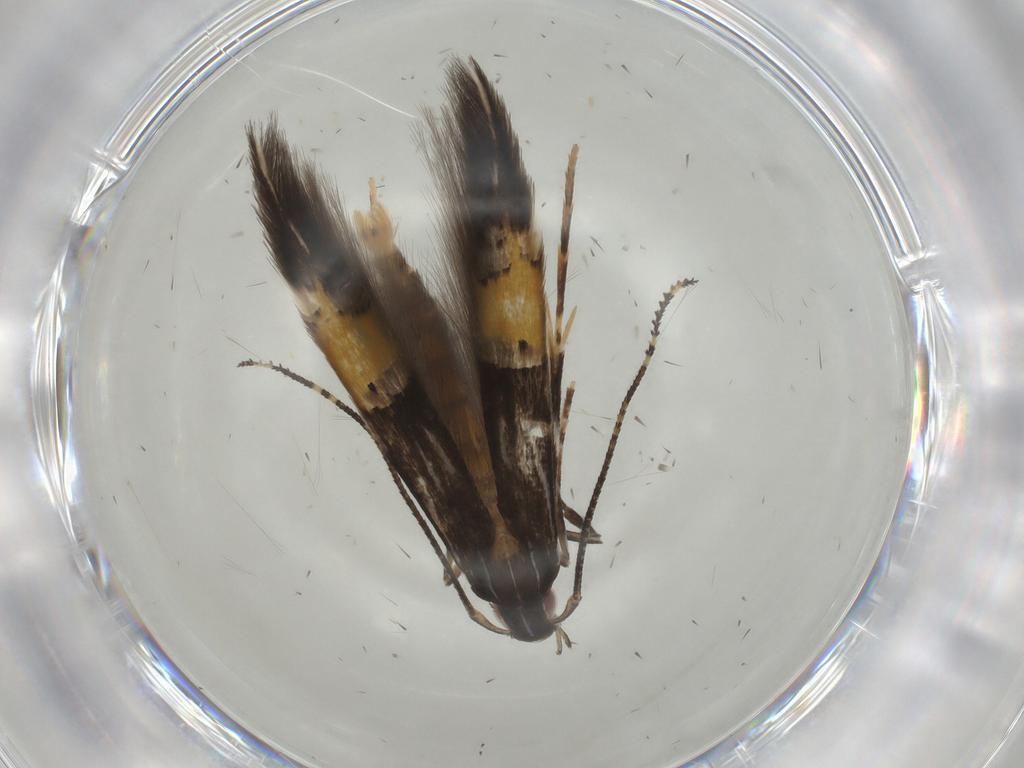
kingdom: Animalia
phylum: Arthropoda
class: Insecta
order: Lepidoptera
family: Cosmopterigidae
